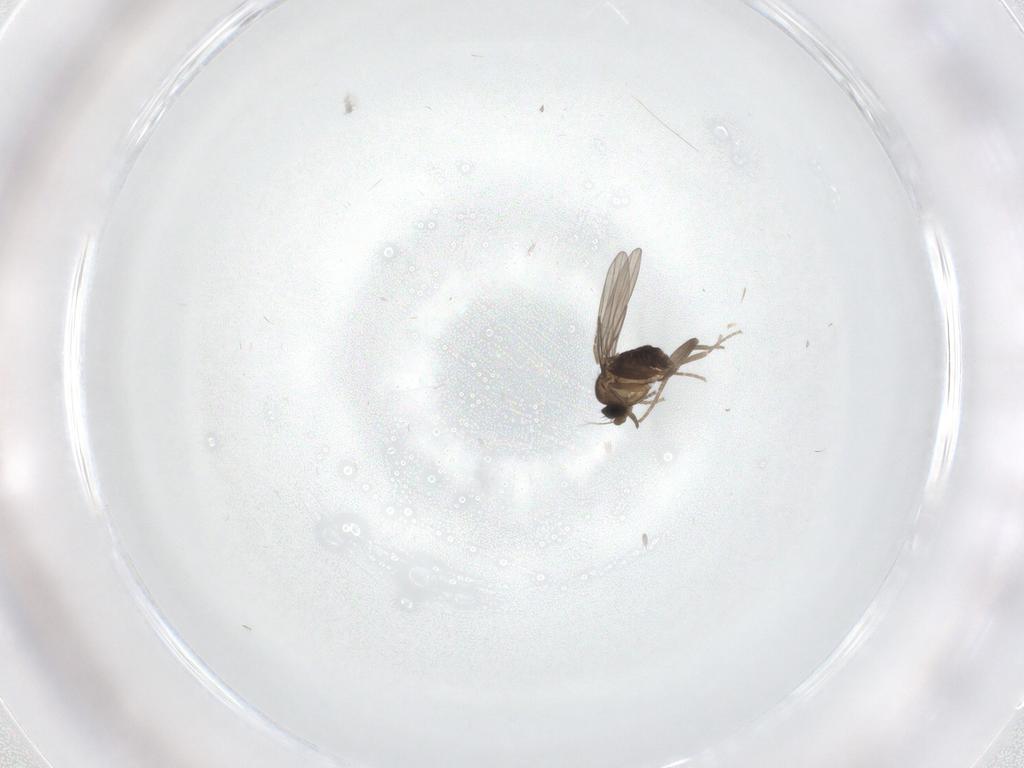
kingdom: Animalia
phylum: Arthropoda
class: Insecta
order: Diptera
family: Chironomidae
